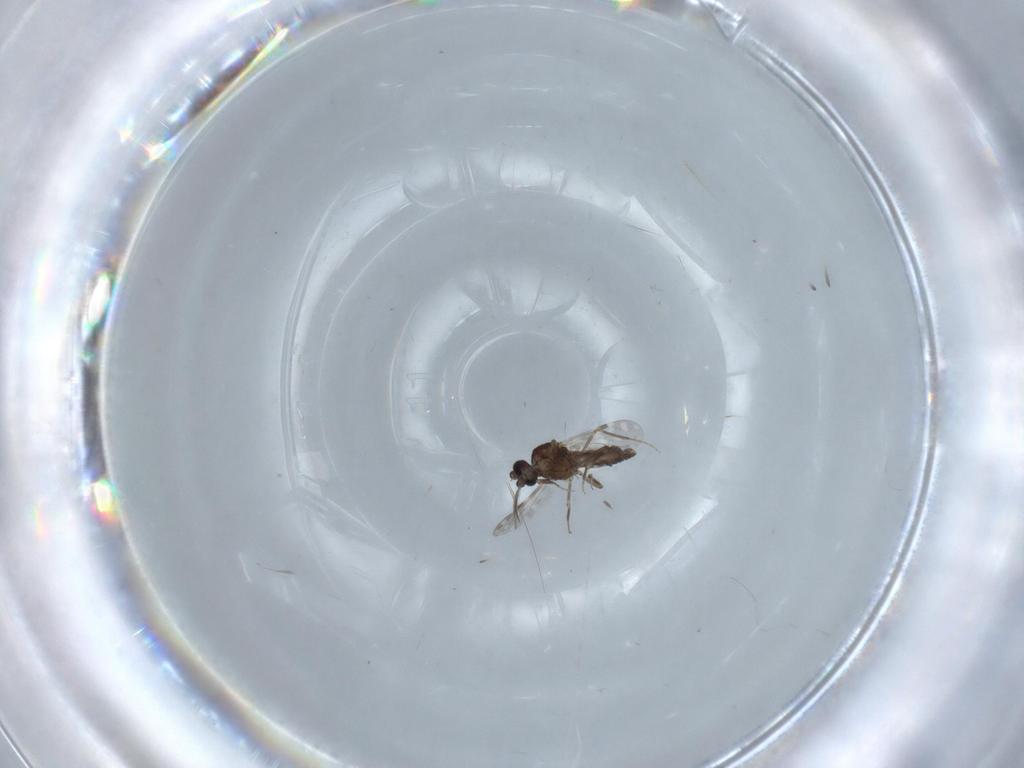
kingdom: Animalia
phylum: Arthropoda
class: Insecta
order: Diptera
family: Ceratopogonidae
